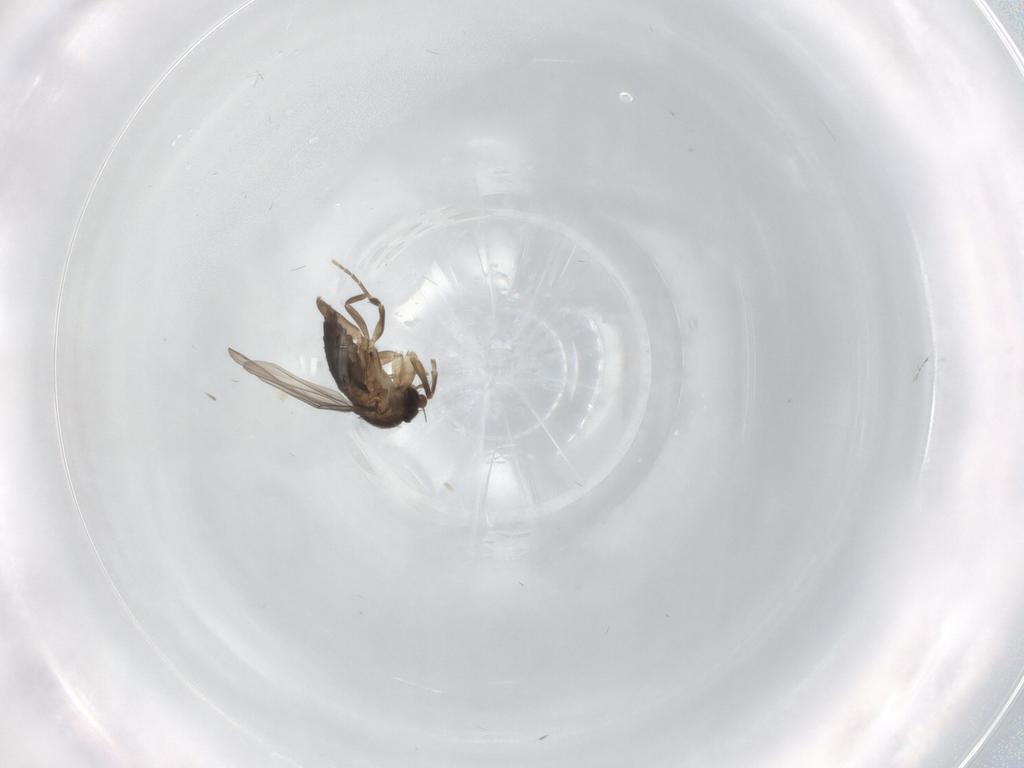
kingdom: Animalia
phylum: Arthropoda
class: Insecta
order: Diptera
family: Phoridae
